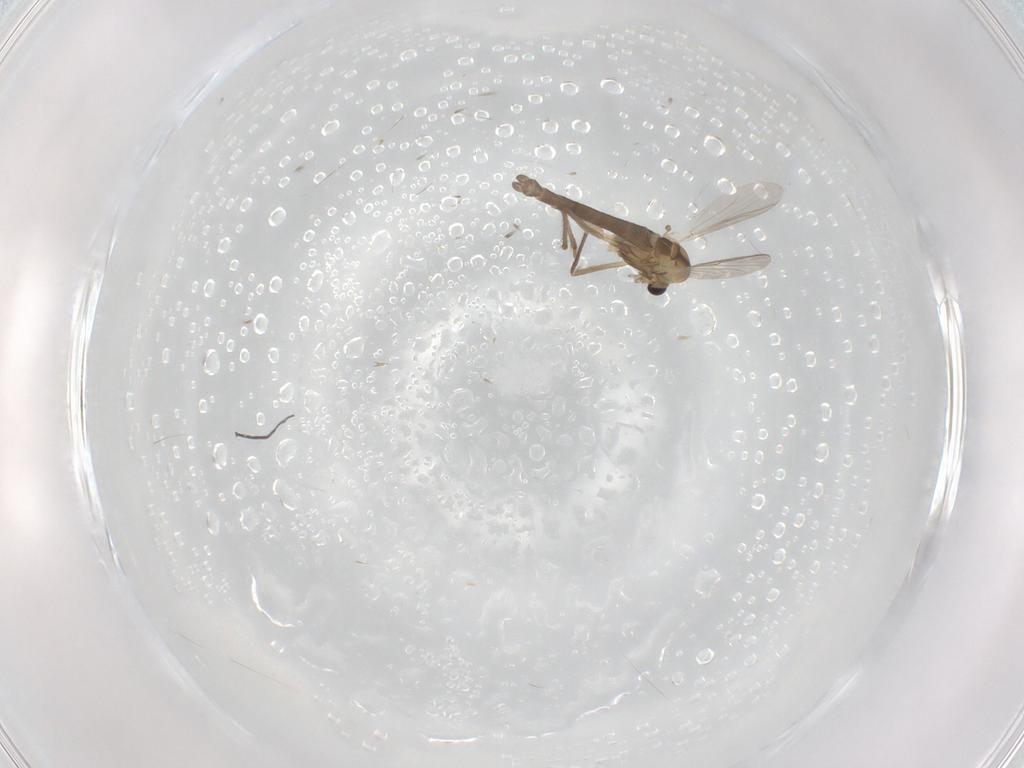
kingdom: Animalia
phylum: Arthropoda
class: Insecta
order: Diptera
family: Chironomidae
